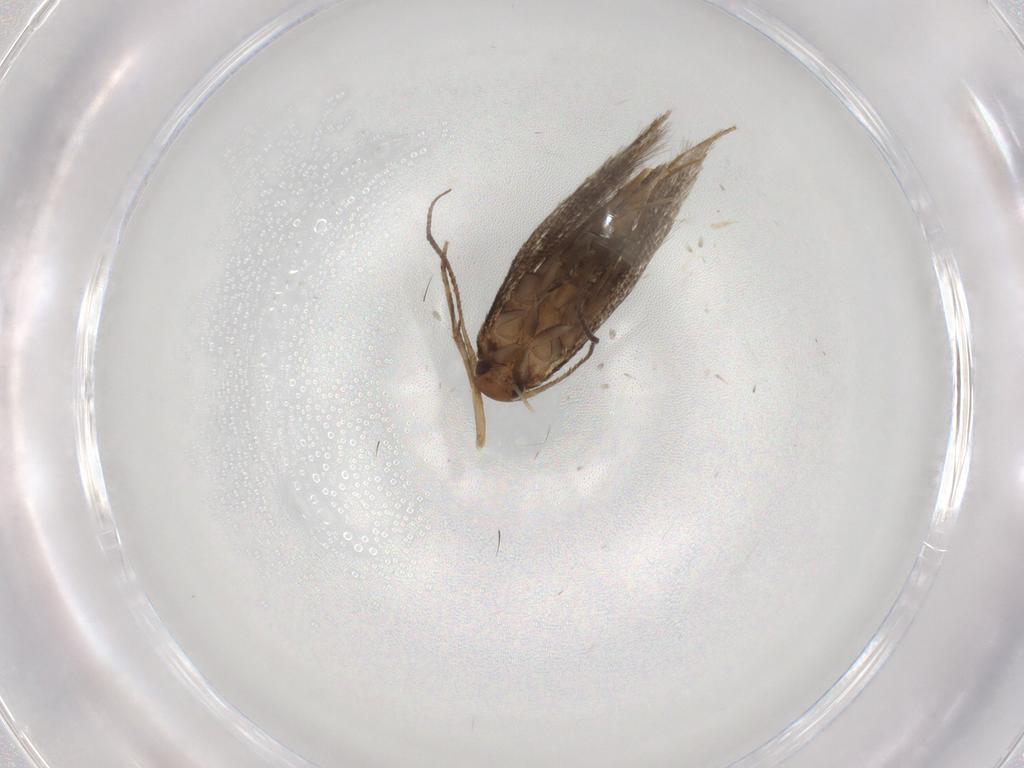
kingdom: Animalia
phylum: Arthropoda
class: Insecta
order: Lepidoptera
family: Elachistidae
